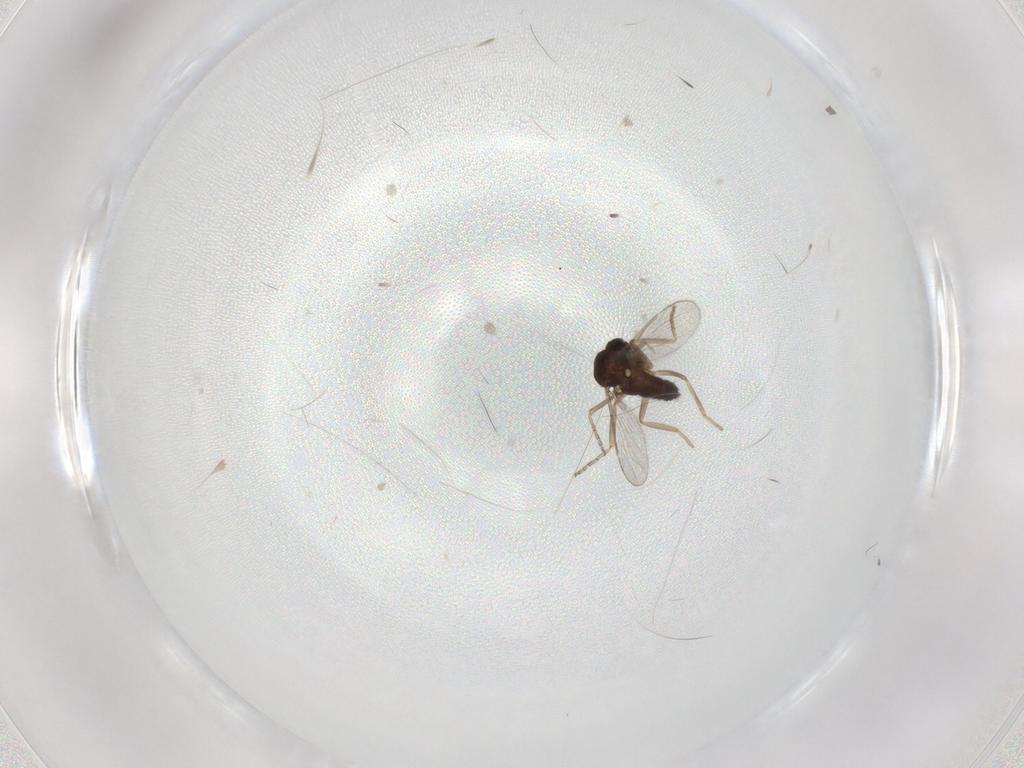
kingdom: Animalia
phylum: Arthropoda
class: Insecta
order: Diptera
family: Ceratopogonidae
